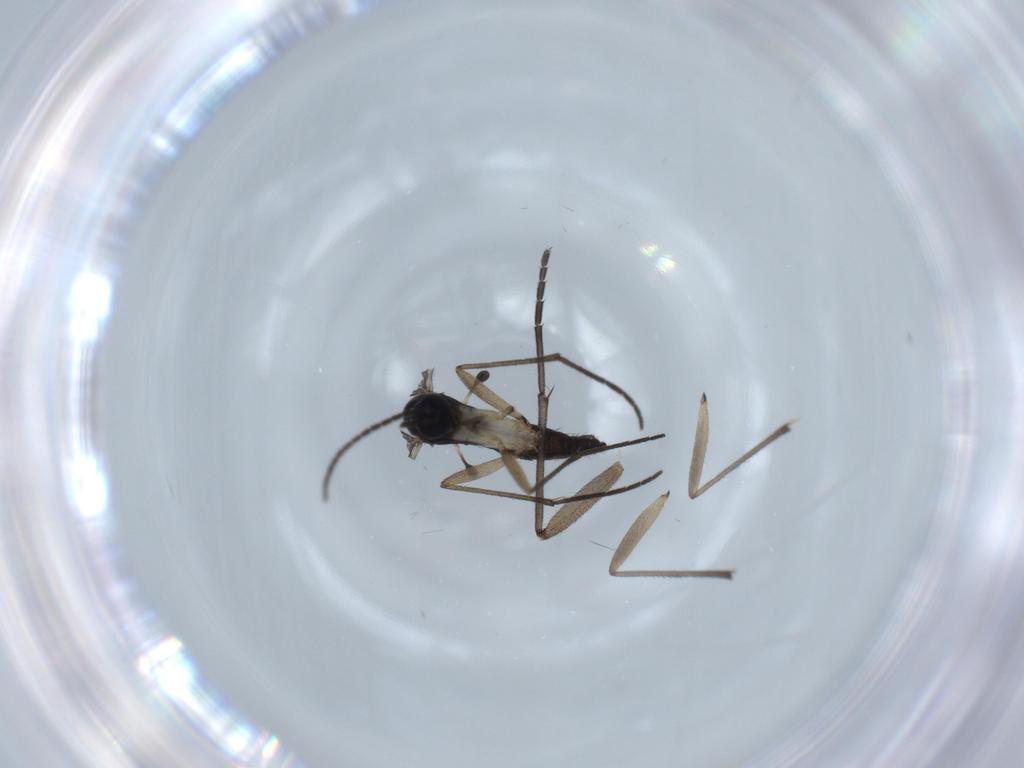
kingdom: Animalia
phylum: Arthropoda
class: Insecta
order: Diptera
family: Sciaridae
